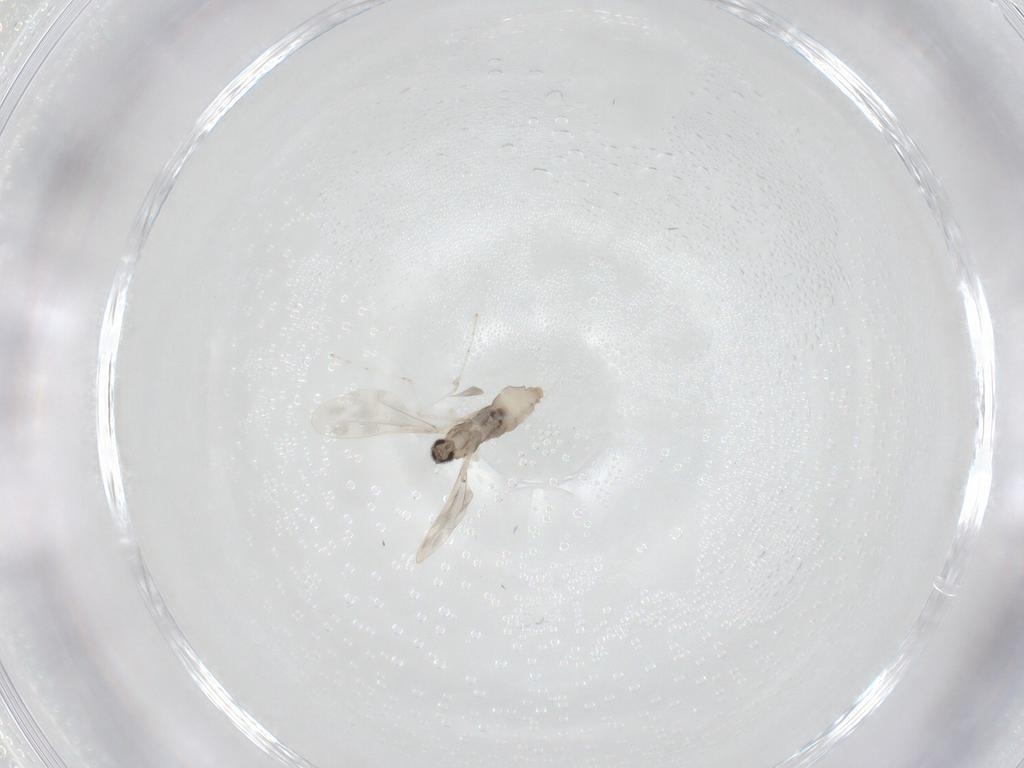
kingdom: Animalia
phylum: Arthropoda
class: Insecta
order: Diptera
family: Cecidomyiidae
